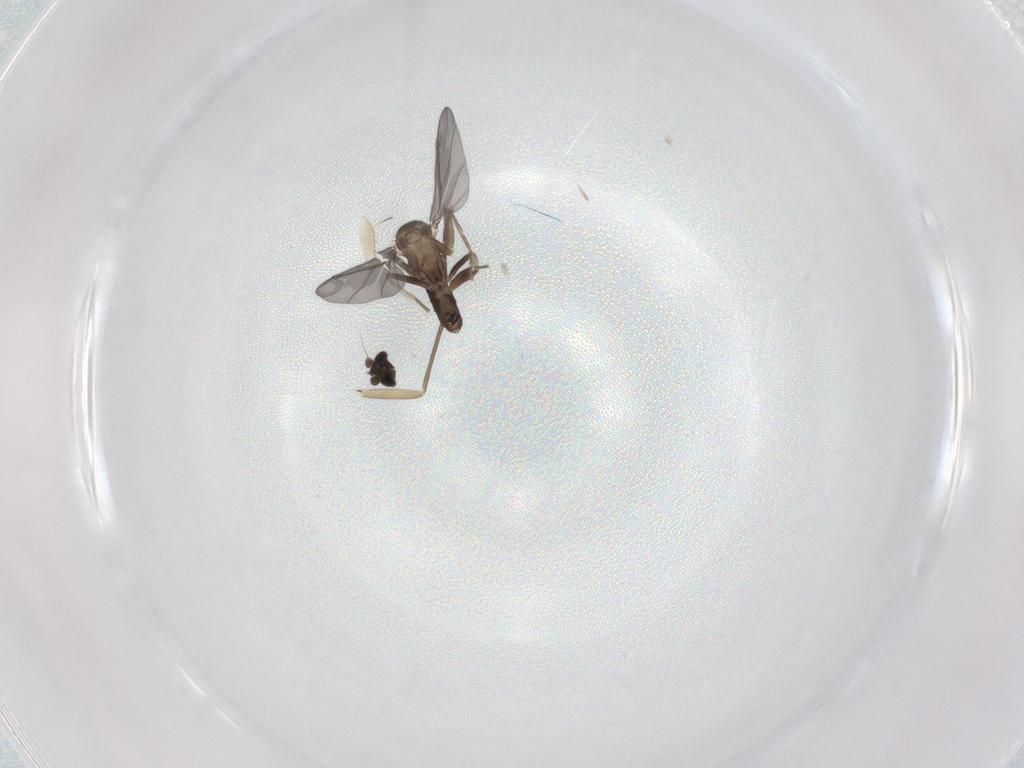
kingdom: Animalia
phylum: Arthropoda
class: Insecta
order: Diptera
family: Sciaridae
